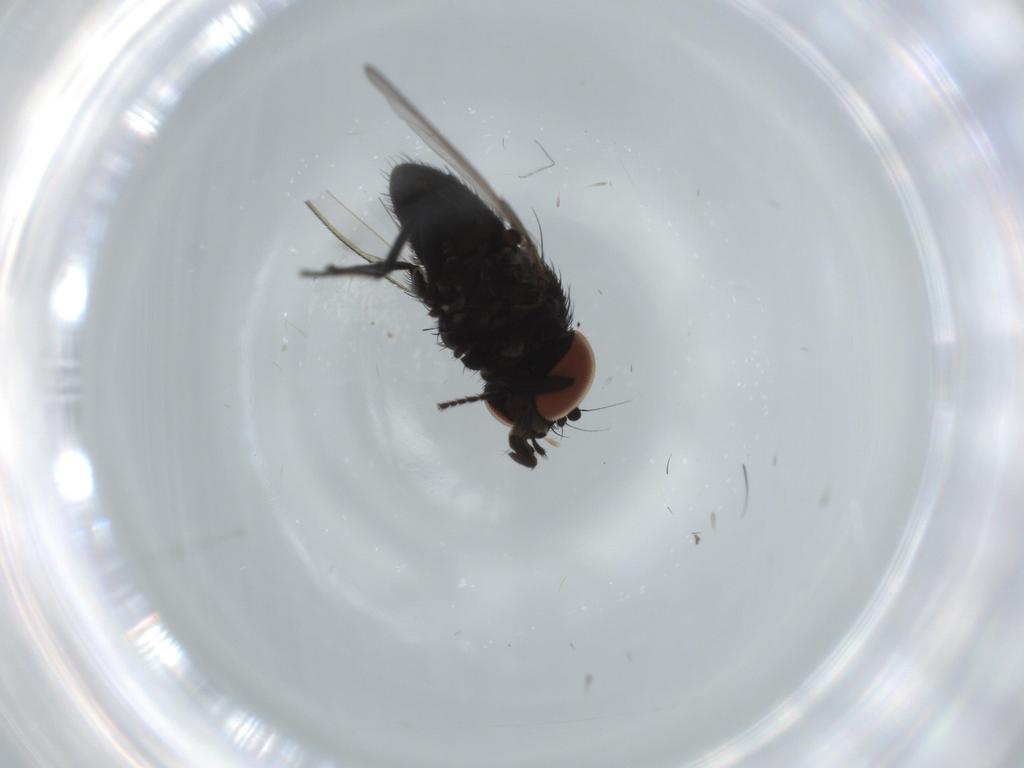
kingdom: Animalia
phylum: Arthropoda
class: Insecta
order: Diptera
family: Milichiidae
